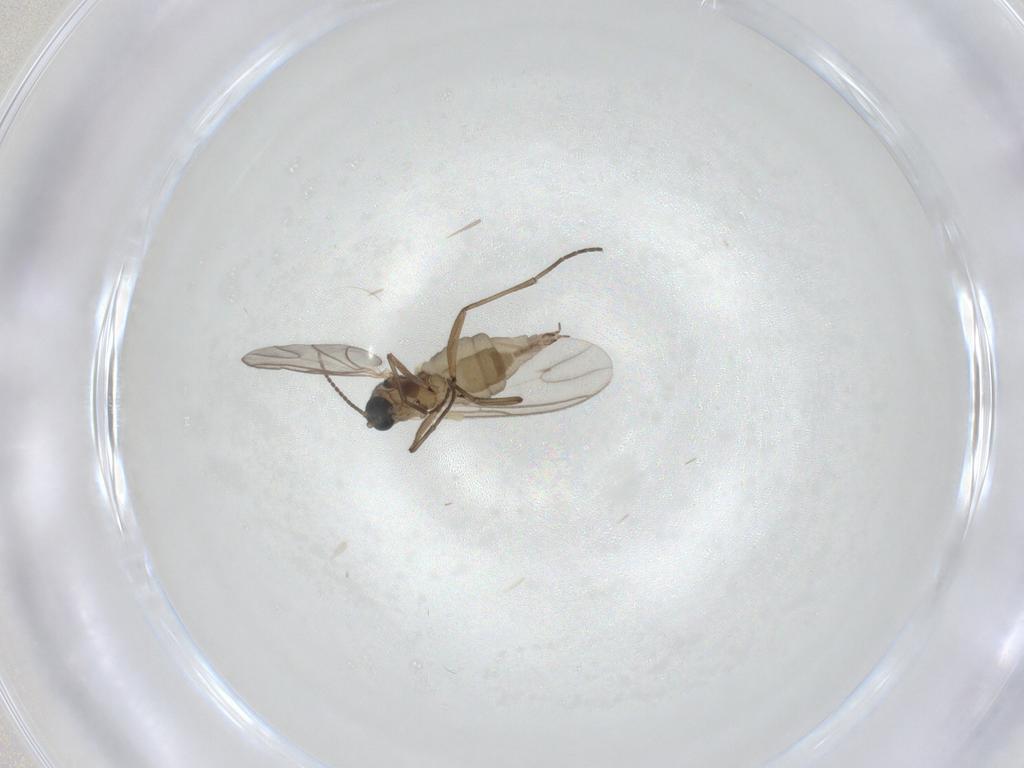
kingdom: Animalia
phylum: Arthropoda
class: Insecta
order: Diptera
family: Psychodidae
